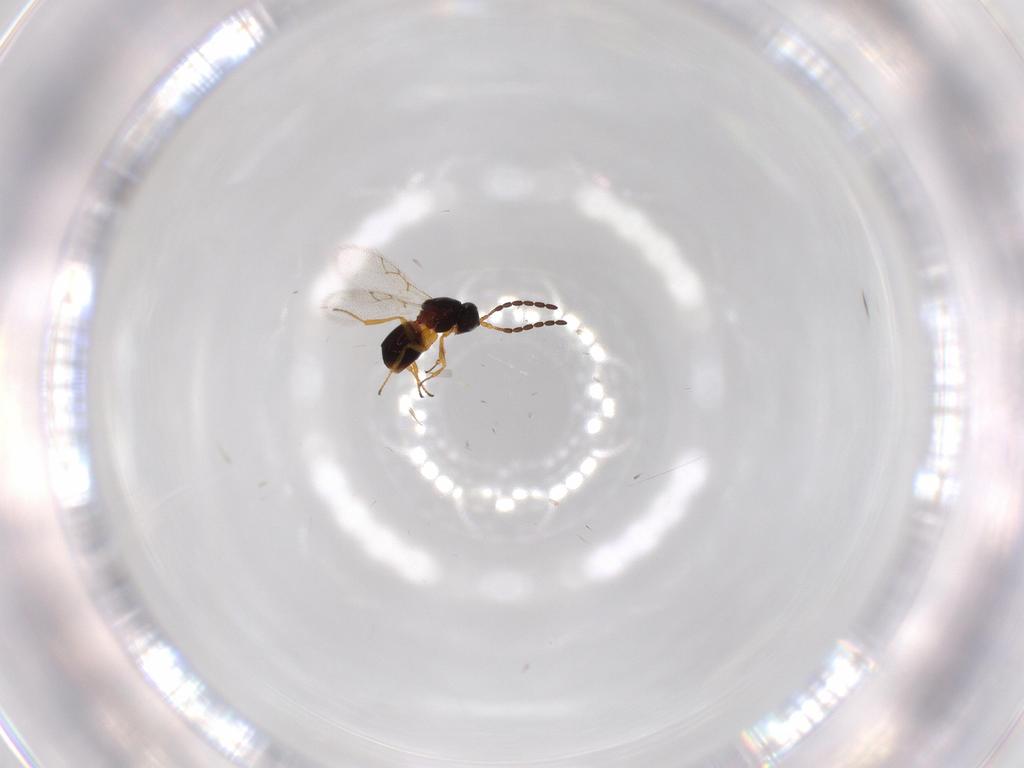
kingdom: Animalia
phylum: Arthropoda
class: Insecta
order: Hymenoptera
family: Figitidae
